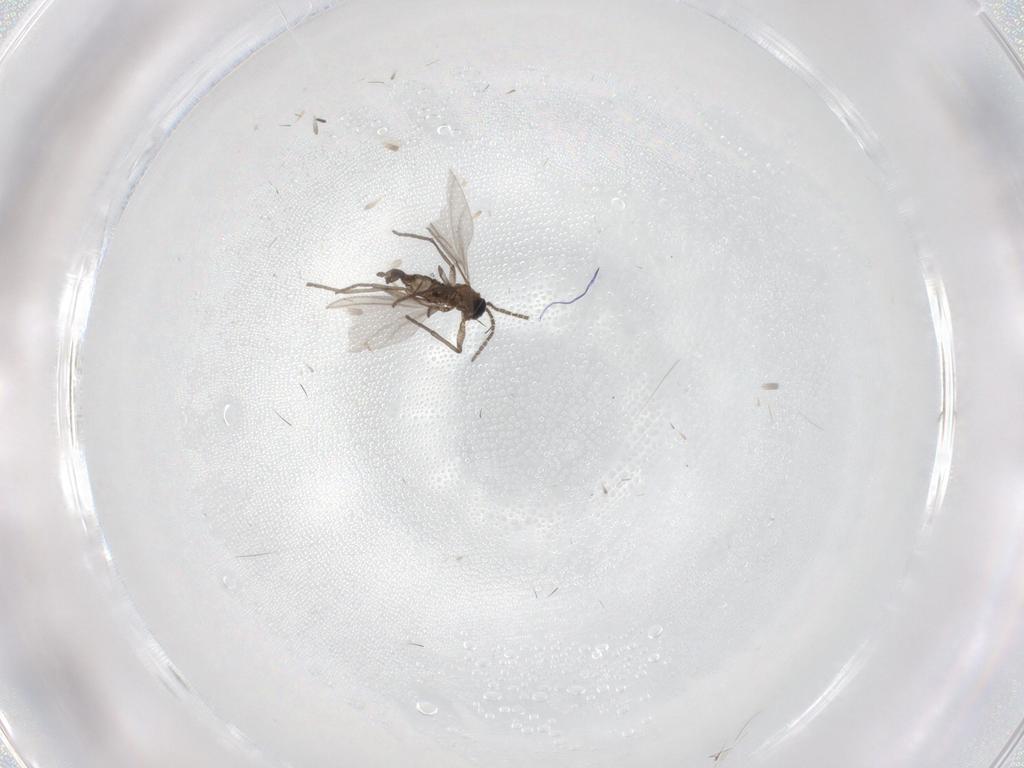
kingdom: Animalia
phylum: Arthropoda
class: Insecta
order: Diptera
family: Sciaridae
